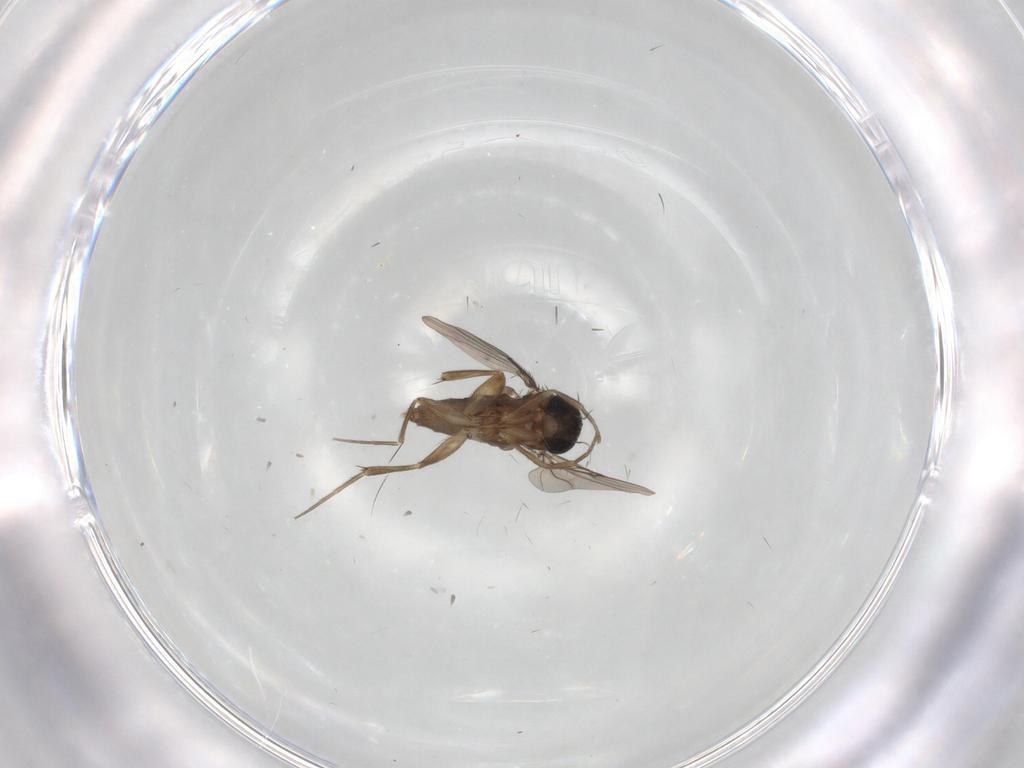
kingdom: Animalia
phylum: Arthropoda
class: Insecta
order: Diptera
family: Phoridae
